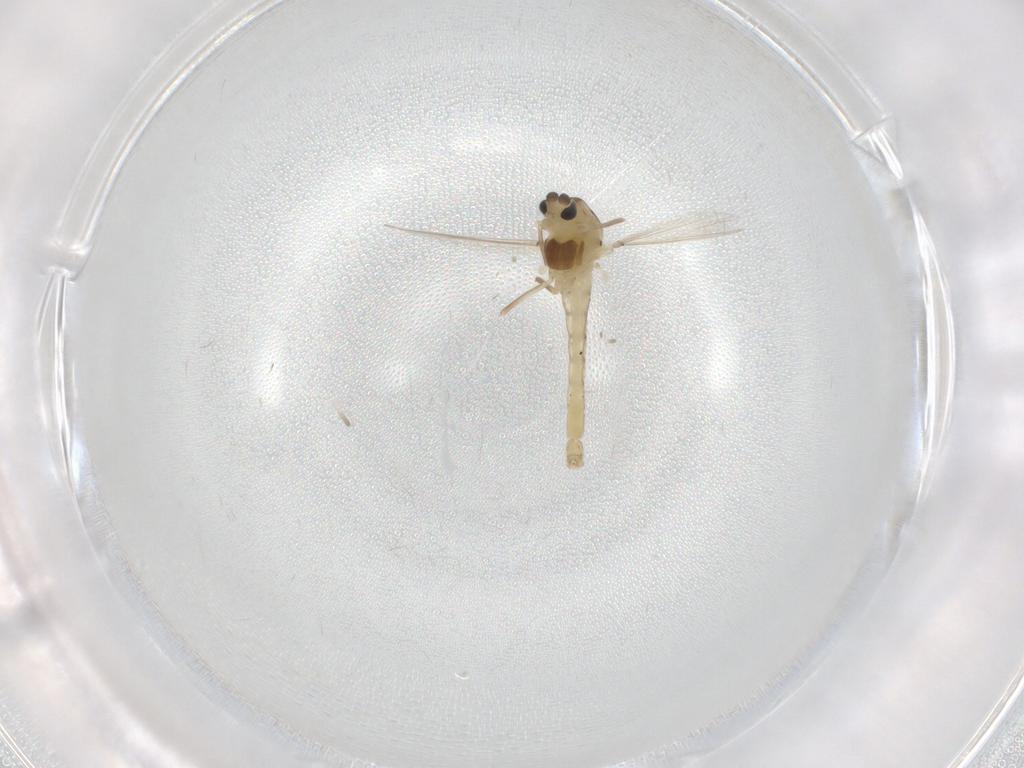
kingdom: Animalia
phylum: Arthropoda
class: Insecta
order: Diptera
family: Chironomidae
